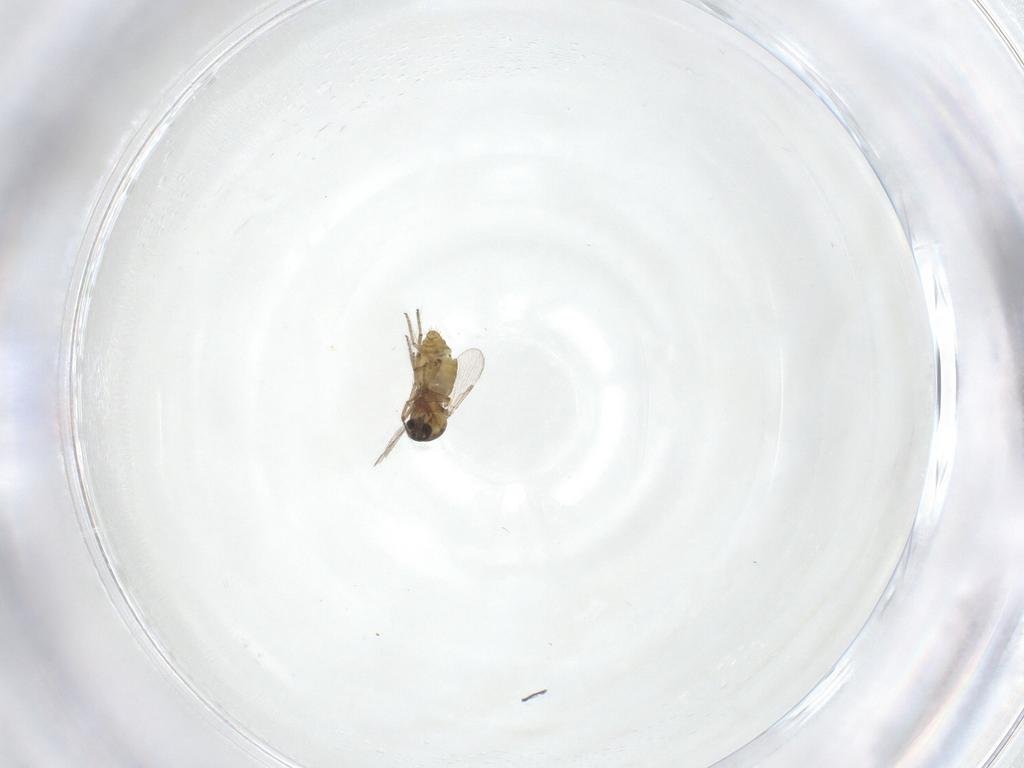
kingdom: Animalia
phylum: Arthropoda
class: Insecta
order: Diptera
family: Ceratopogonidae
